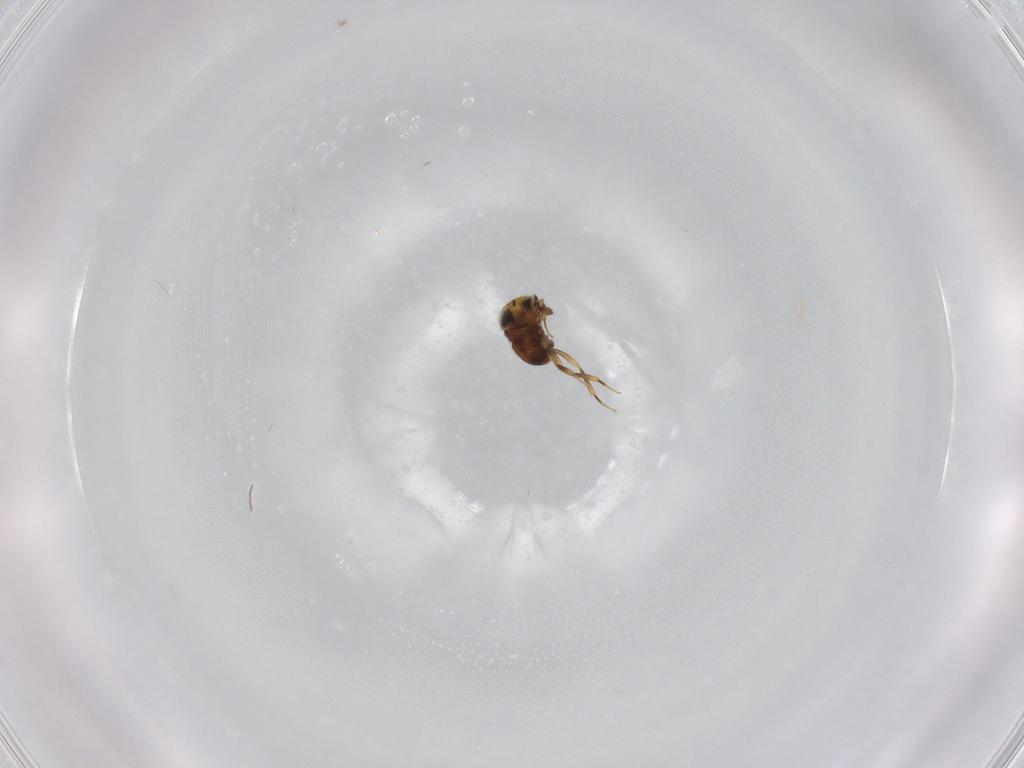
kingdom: Animalia
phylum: Arthropoda
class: Insecta
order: Hymenoptera
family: Scelionidae
